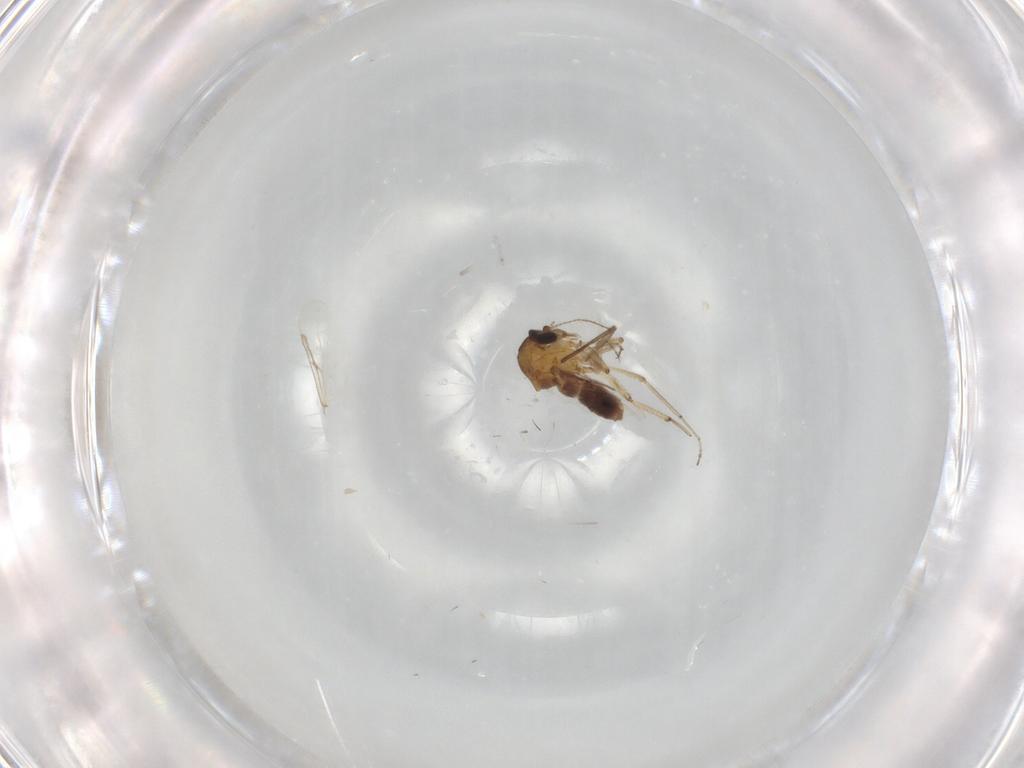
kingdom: Animalia
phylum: Arthropoda
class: Insecta
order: Diptera
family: Ceratopogonidae
